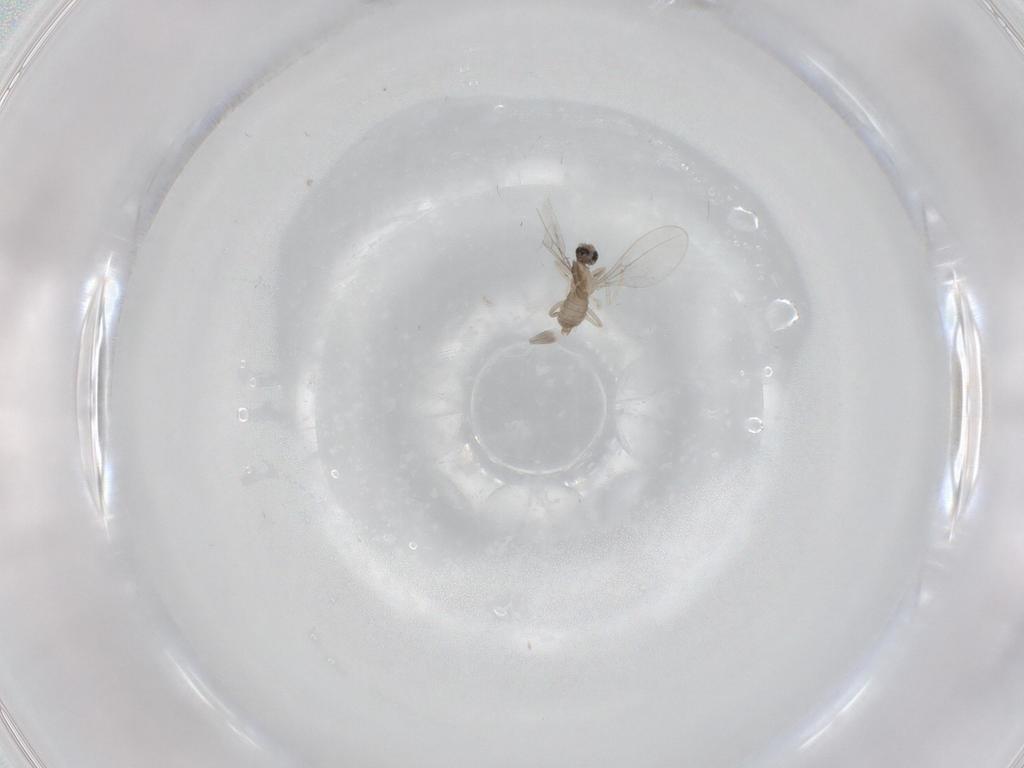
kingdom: Animalia
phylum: Arthropoda
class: Insecta
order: Diptera
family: Cecidomyiidae
